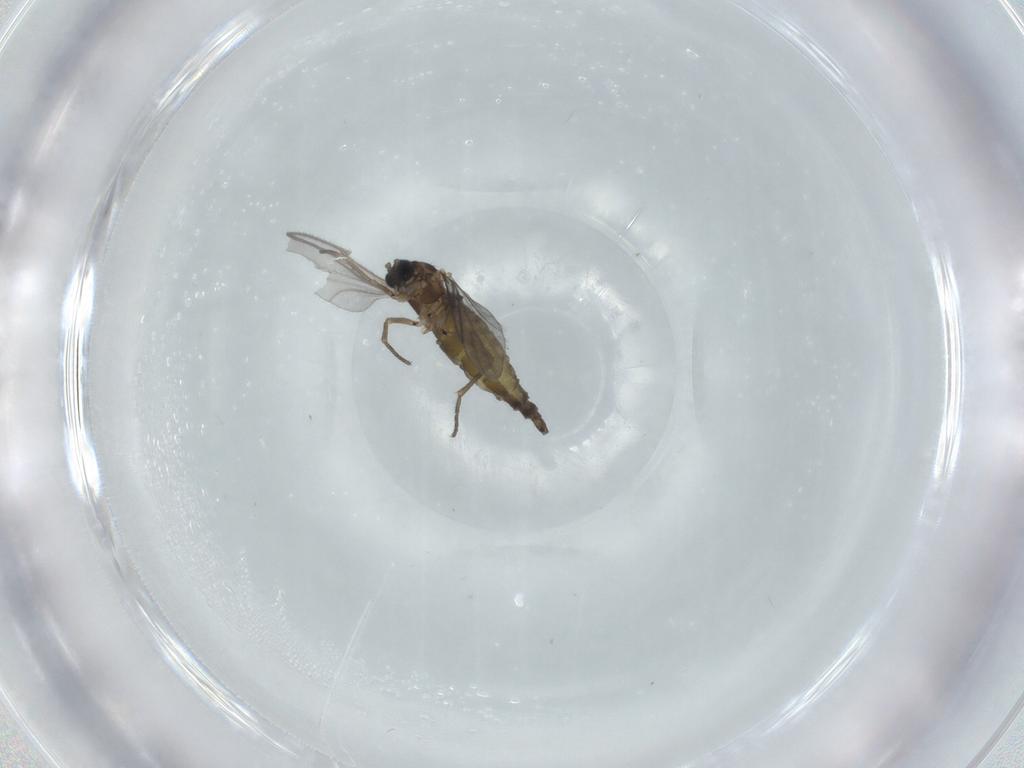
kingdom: Animalia
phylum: Arthropoda
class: Insecta
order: Diptera
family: Sciaridae
